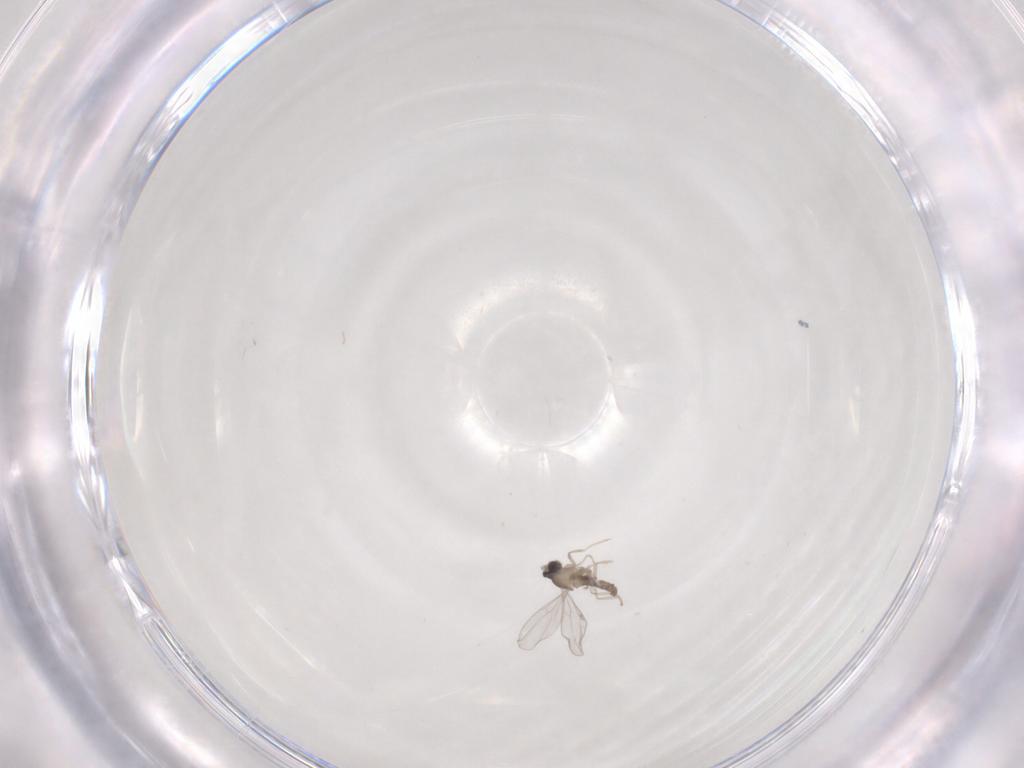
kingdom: Animalia
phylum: Arthropoda
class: Insecta
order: Diptera
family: Cecidomyiidae
